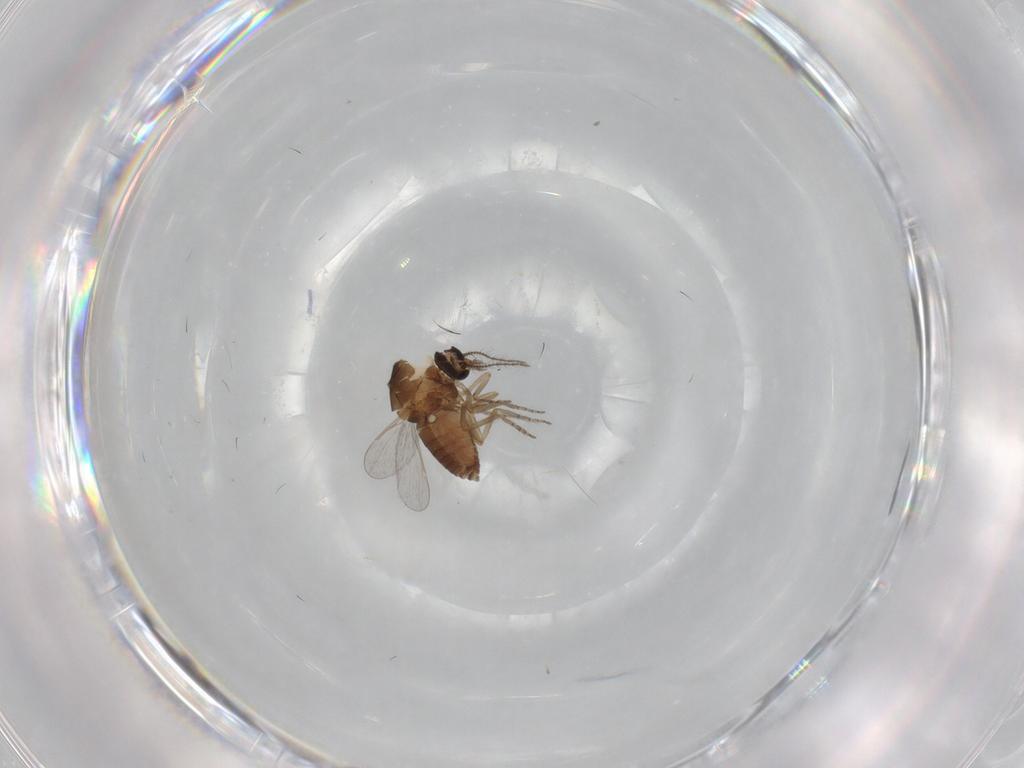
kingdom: Animalia
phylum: Arthropoda
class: Insecta
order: Diptera
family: Ceratopogonidae
